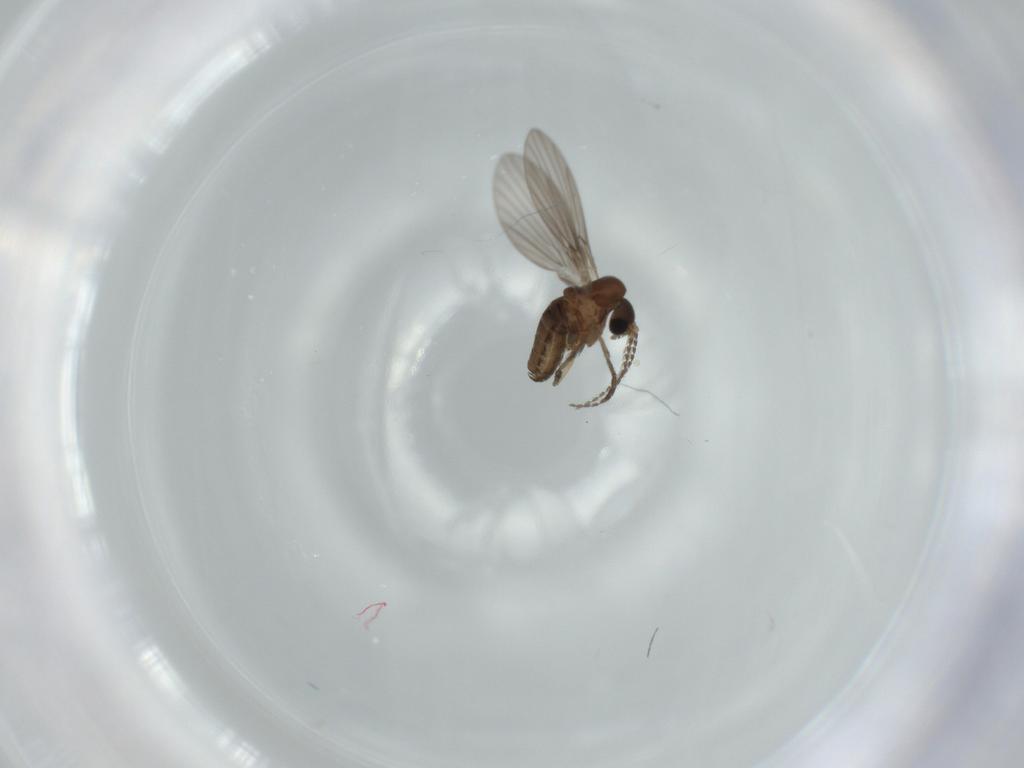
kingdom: Animalia
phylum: Arthropoda
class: Insecta
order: Diptera
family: Psychodidae
